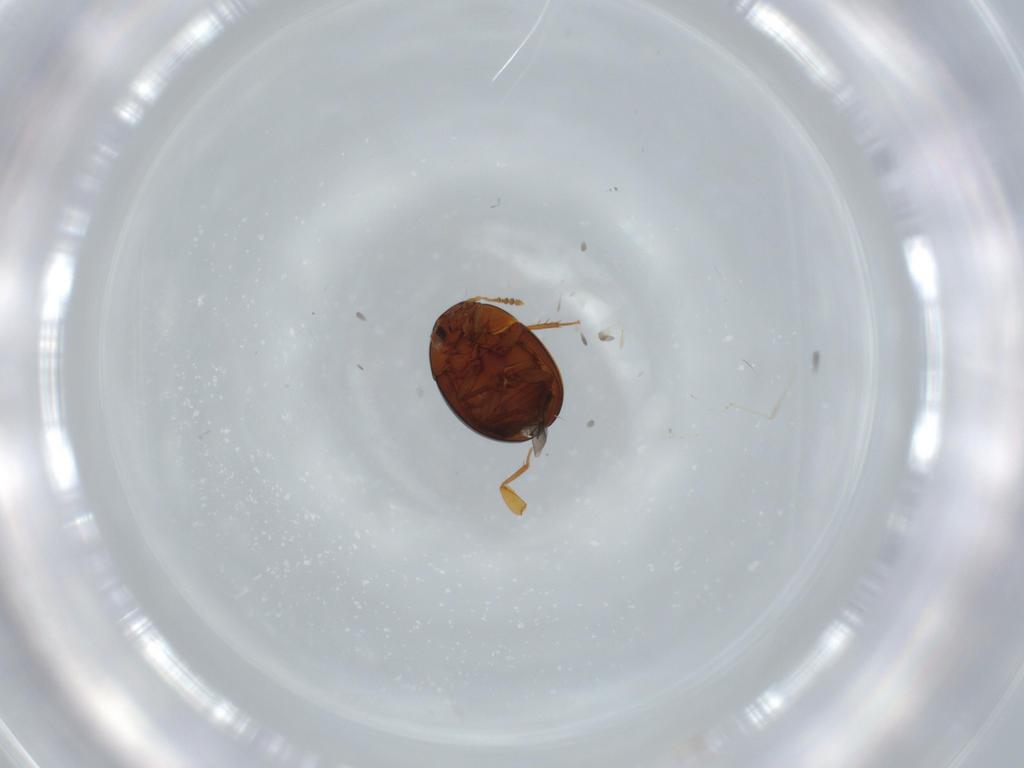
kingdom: Animalia
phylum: Arthropoda
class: Insecta
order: Coleoptera
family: Leiodidae
